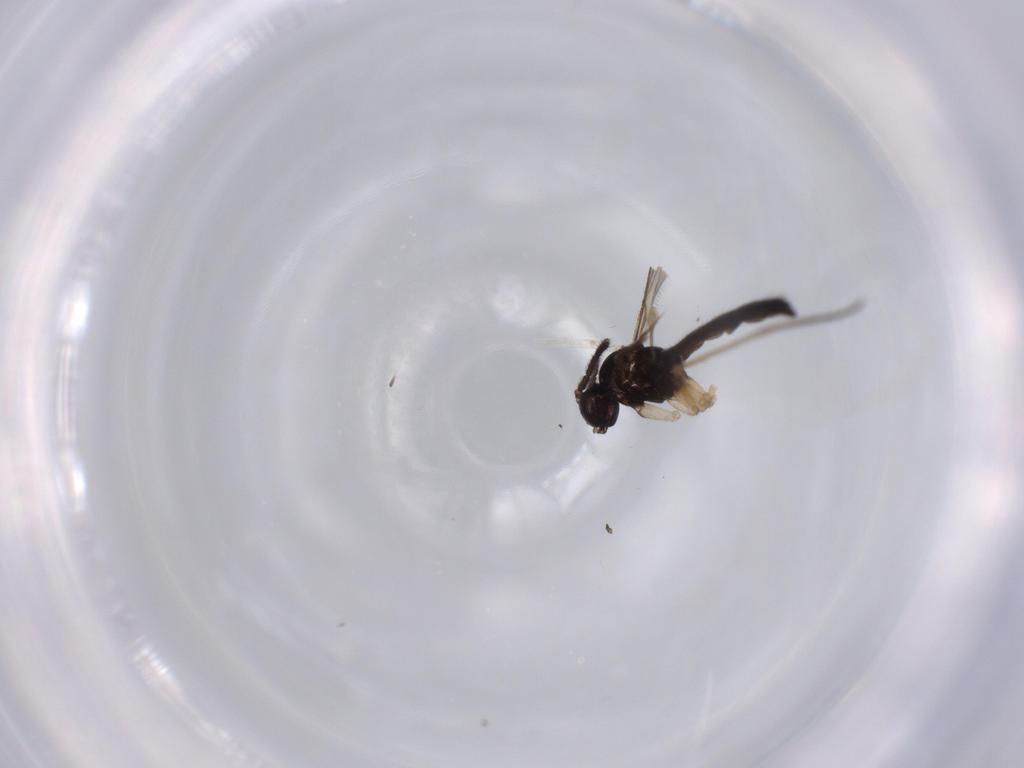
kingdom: Animalia
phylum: Arthropoda
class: Insecta
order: Diptera
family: Sciaridae
